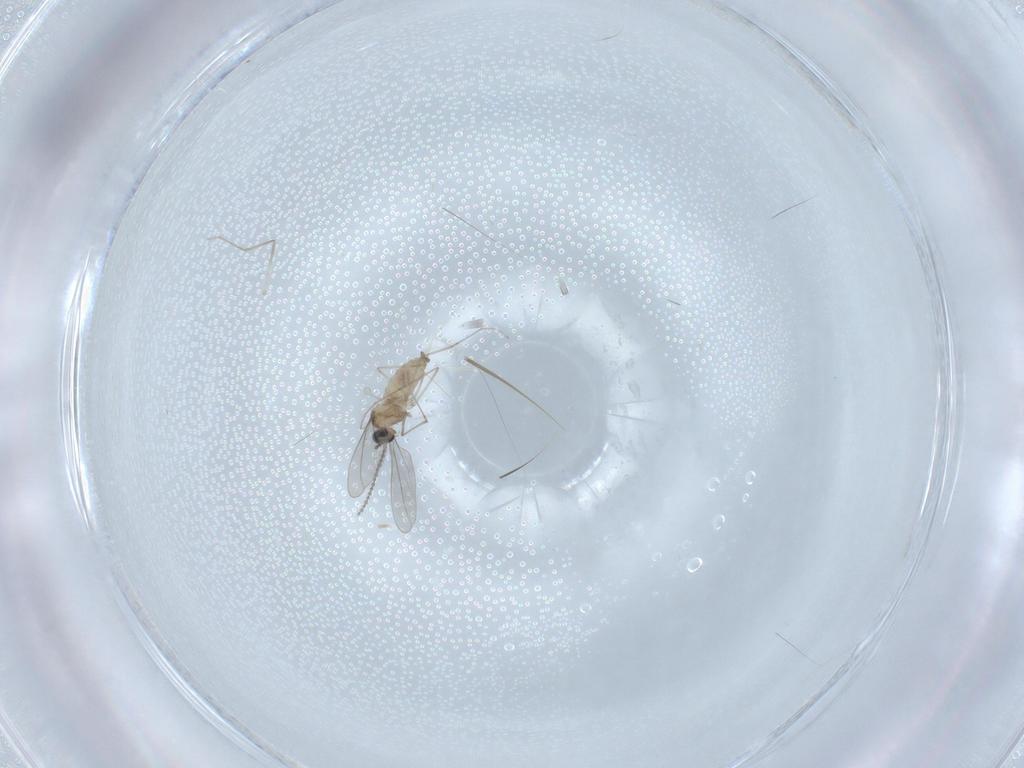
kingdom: Animalia
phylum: Arthropoda
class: Insecta
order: Diptera
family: Cecidomyiidae
